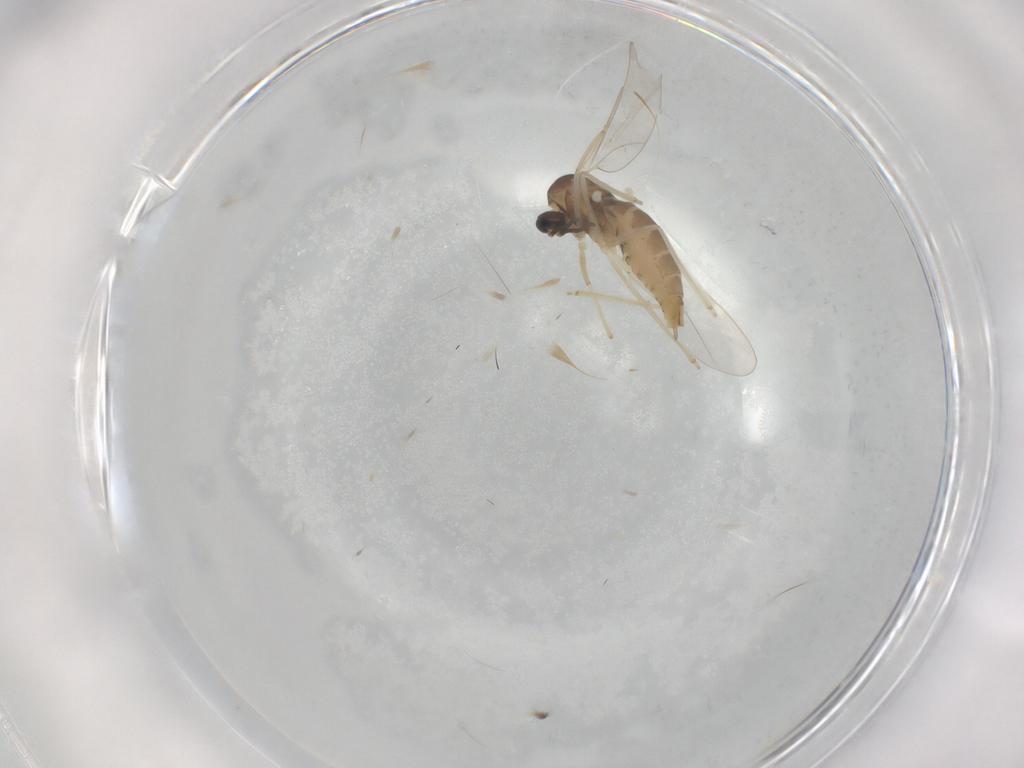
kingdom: Animalia
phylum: Arthropoda
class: Insecta
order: Diptera
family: Cecidomyiidae
